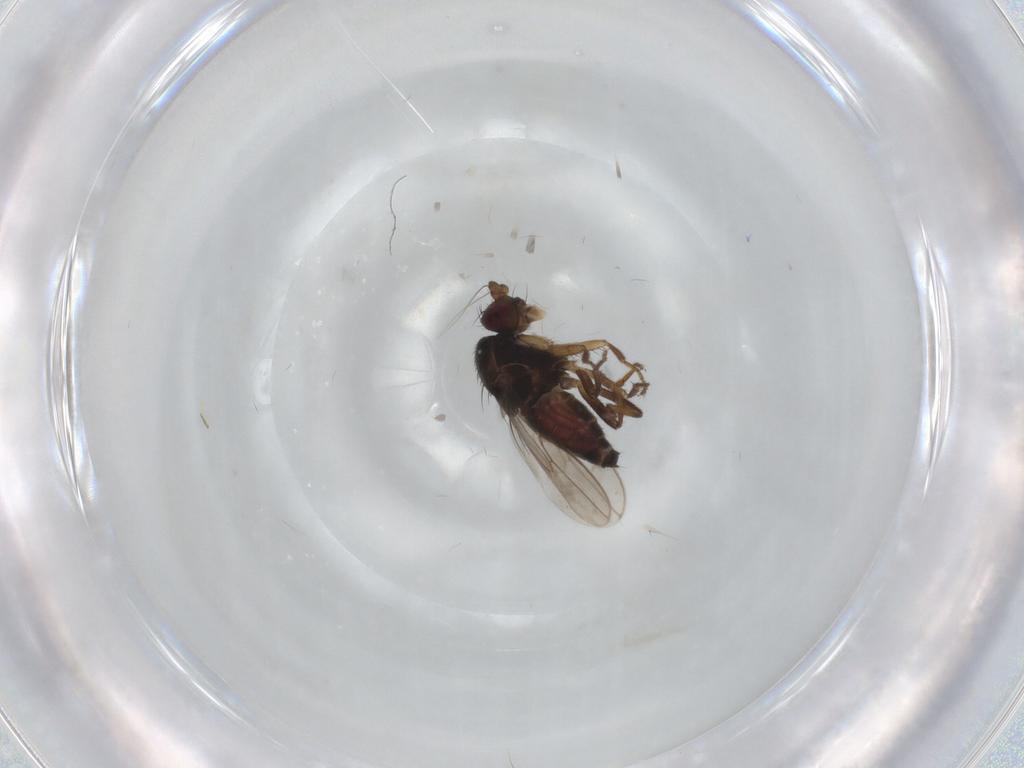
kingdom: Animalia
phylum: Arthropoda
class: Insecta
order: Diptera
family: Sphaeroceridae
